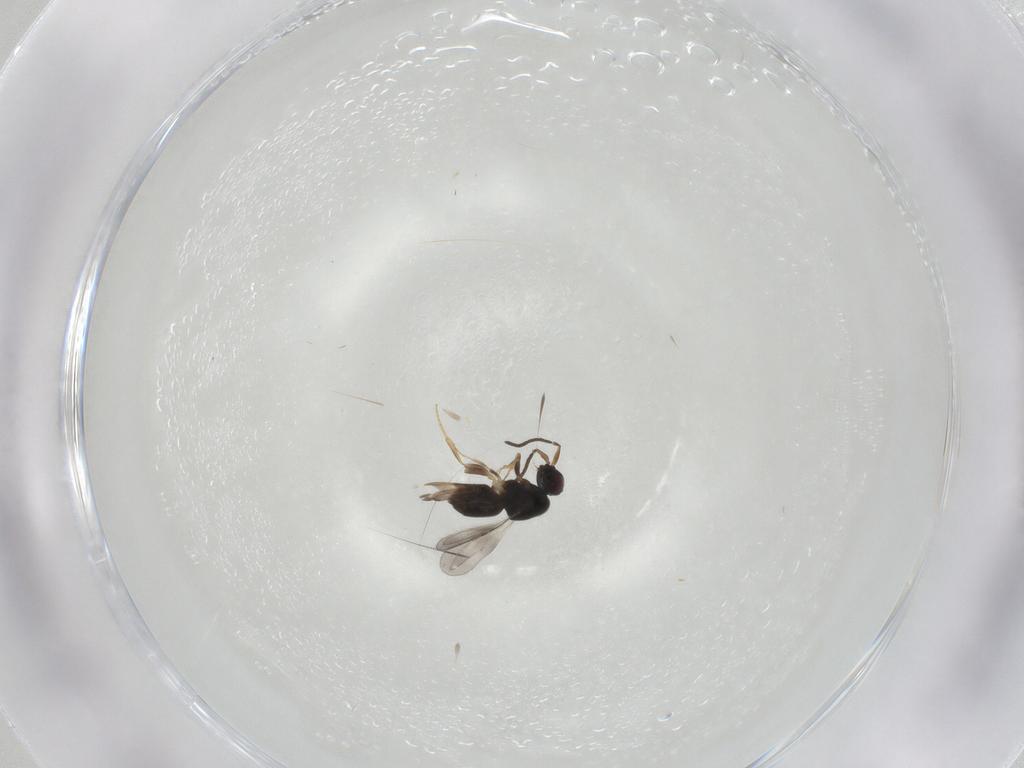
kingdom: Animalia
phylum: Arthropoda
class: Insecta
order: Hymenoptera
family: Ceraphronidae
